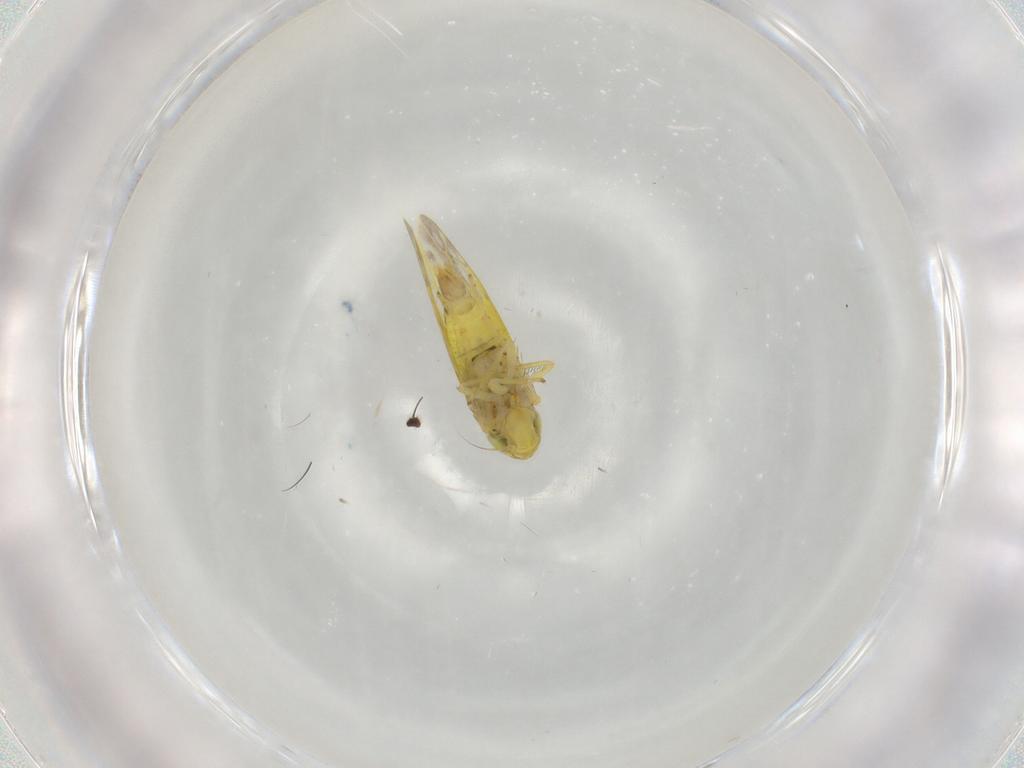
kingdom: Animalia
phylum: Arthropoda
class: Insecta
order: Hemiptera
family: Cicadellidae
